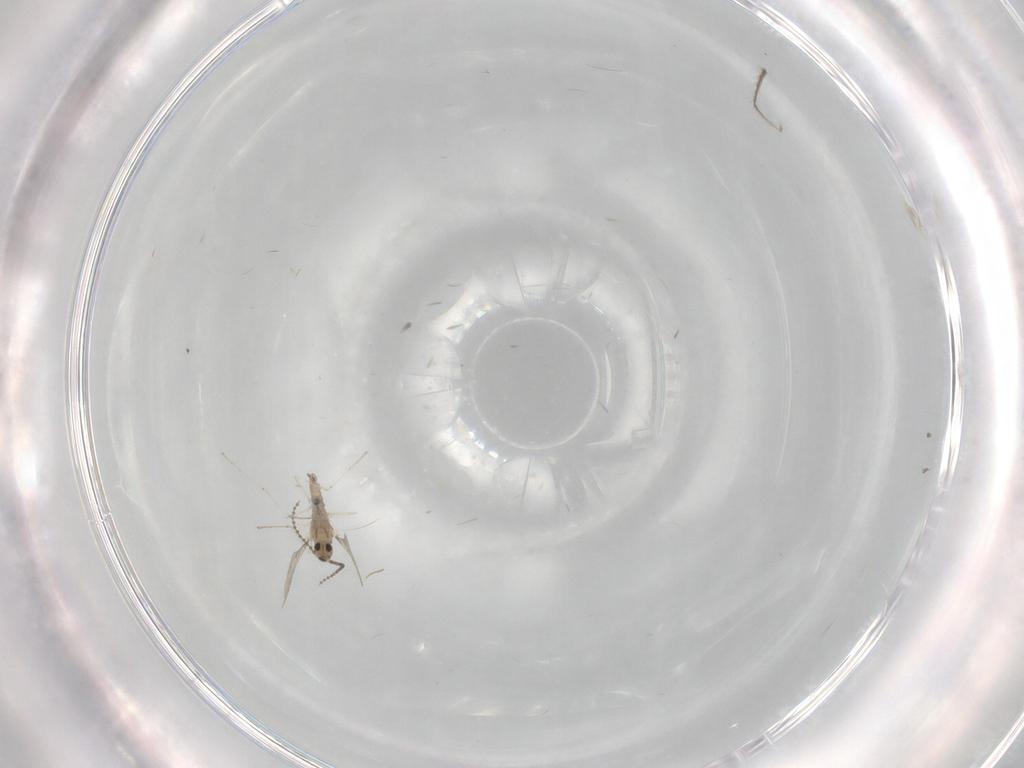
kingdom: Animalia
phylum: Arthropoda
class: Insecta
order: Diptera
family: Cecidomyiidae
